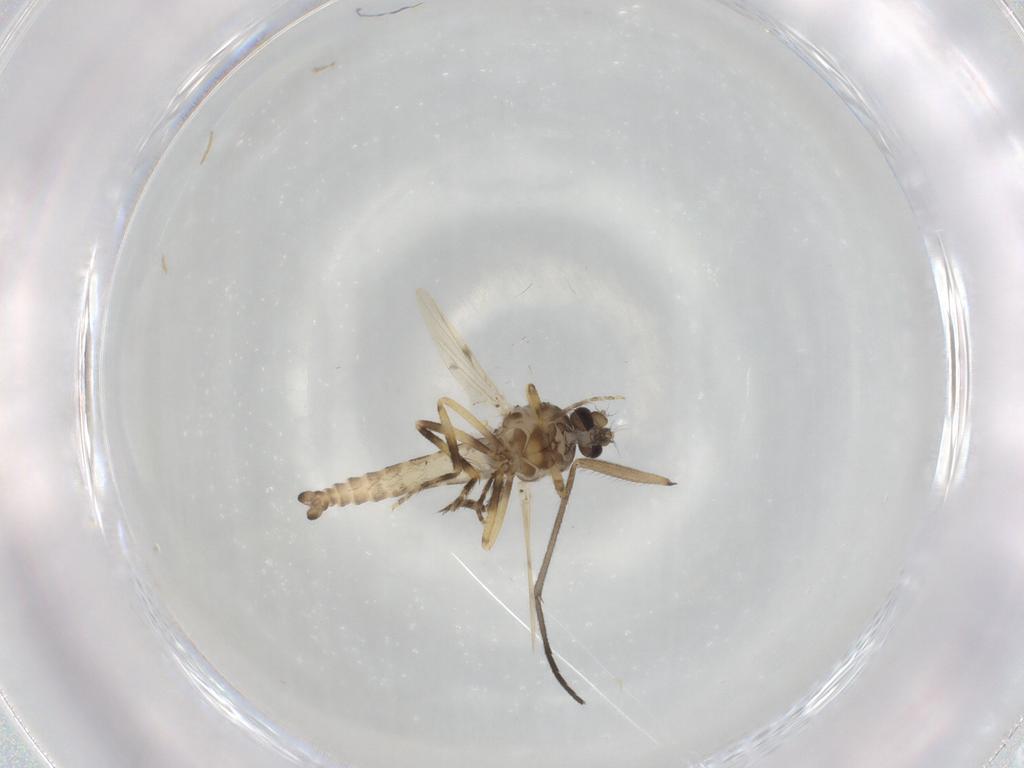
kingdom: Animalia
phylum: Arthropoda
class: Insecta
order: Diptera
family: Ceratopogonidae
